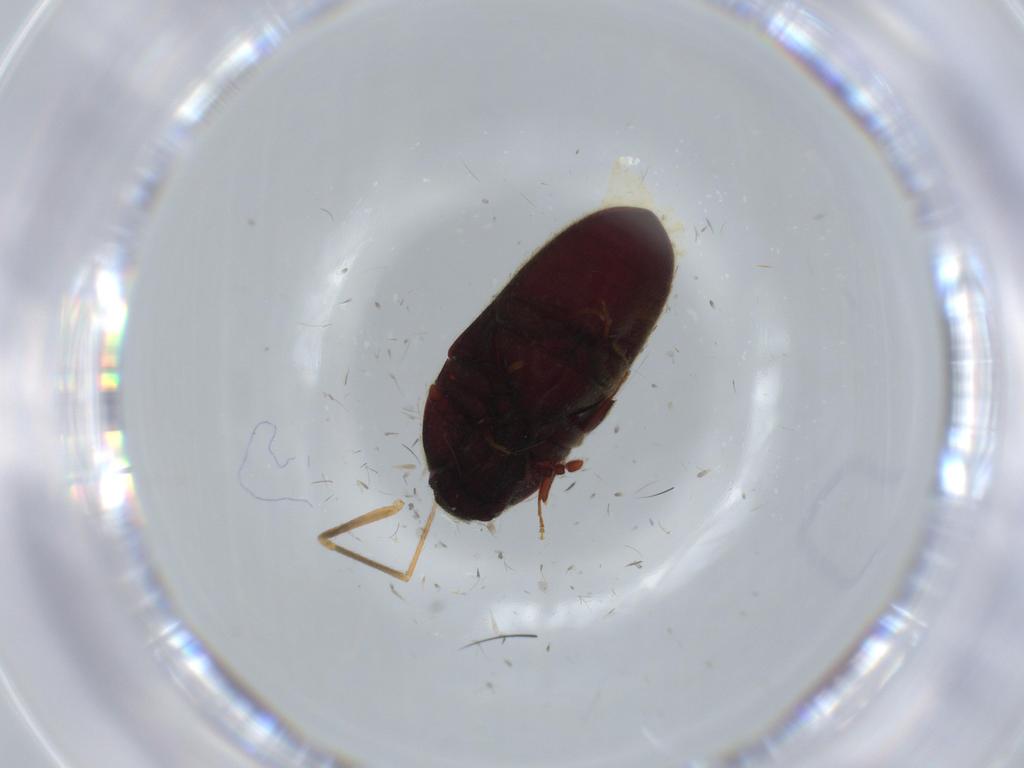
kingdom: Animalia
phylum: Arthropoda
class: Insecta
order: Coleoptera
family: Throscidae
